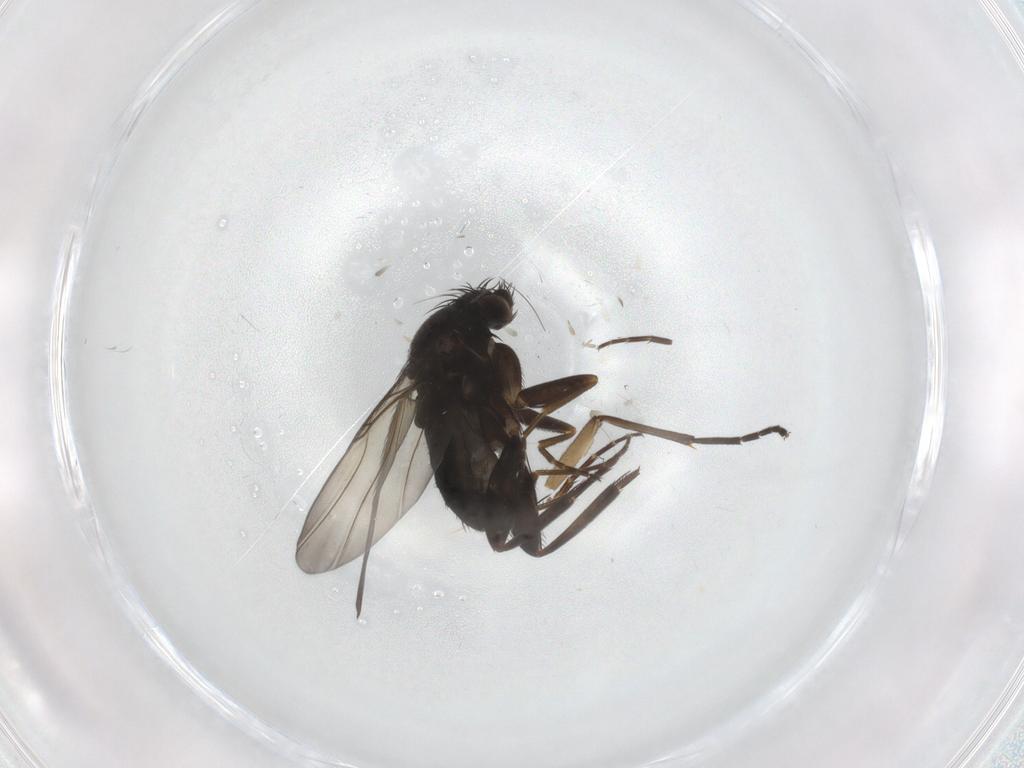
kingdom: Animalia
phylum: Arthropoda
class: Insecta
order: Diptera
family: Phoridae
